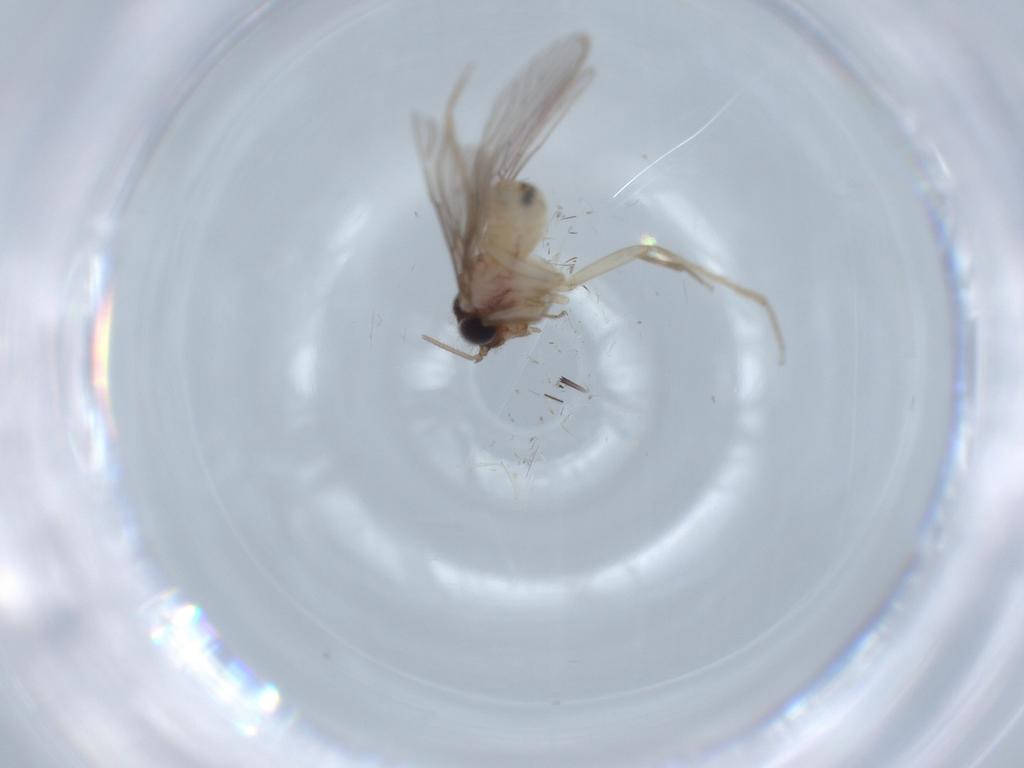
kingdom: Animalia
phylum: Arthropoda
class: Insecta
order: Psocodea
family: Cladiopsocidae
